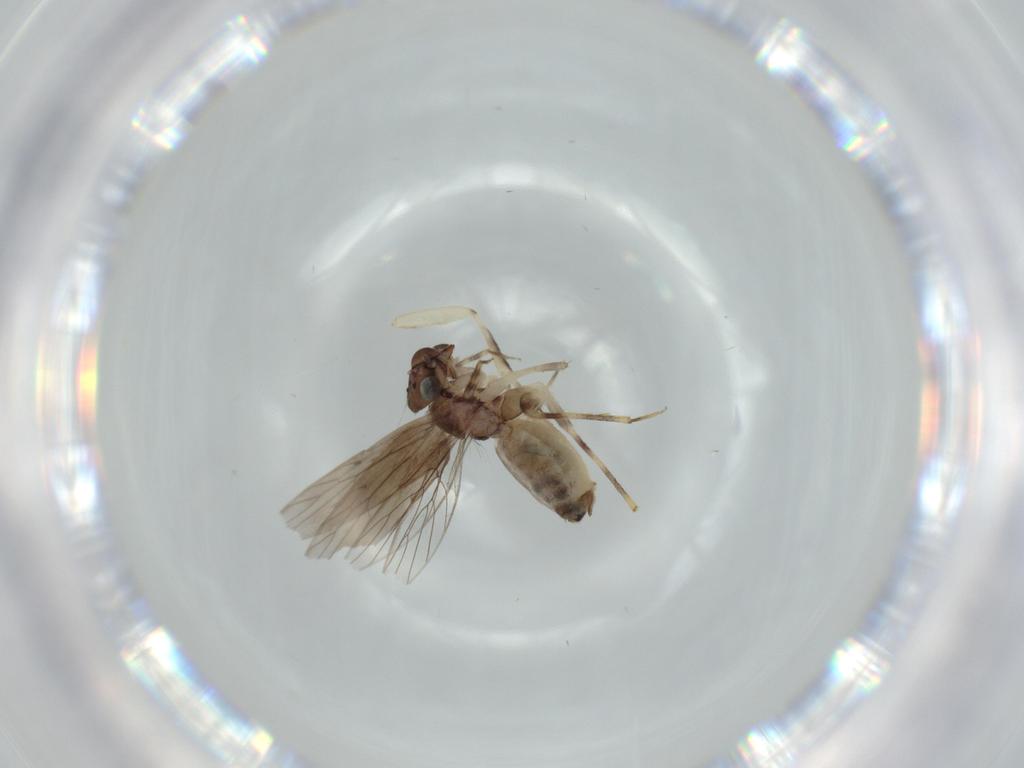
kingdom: Animalia
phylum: Arthropoda
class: Insecta
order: Psocodea
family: Lepidopsocidae
